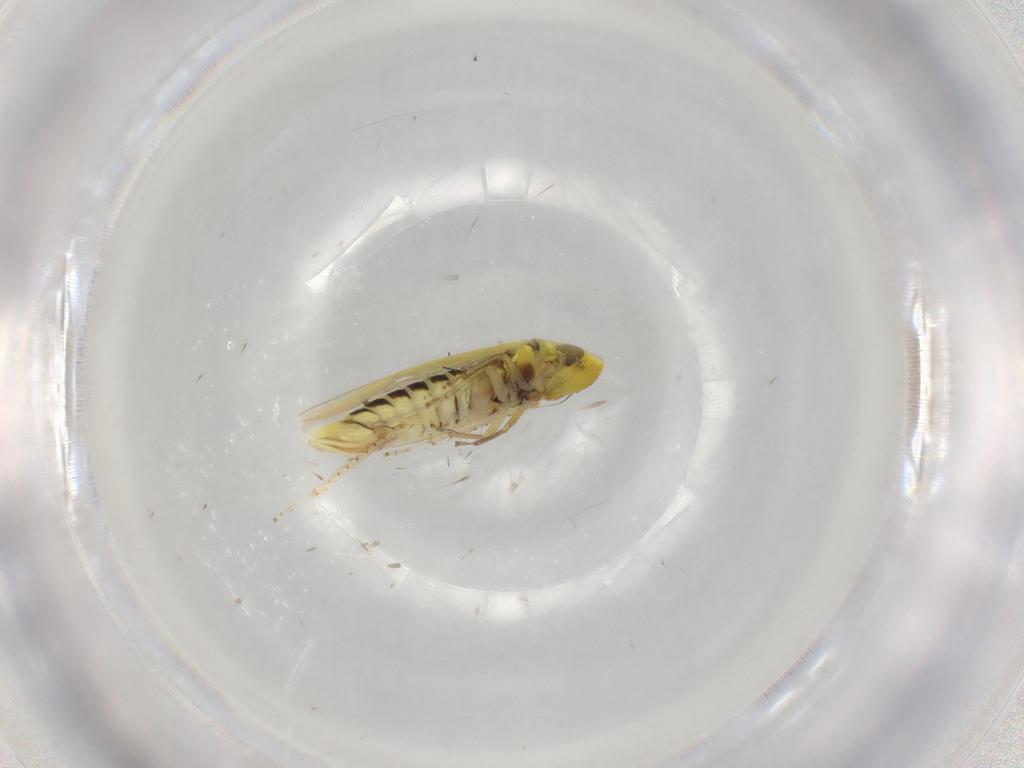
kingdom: Animalia
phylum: Arthropoda
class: Insecta
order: Hemiptera
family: Cicadellidae
